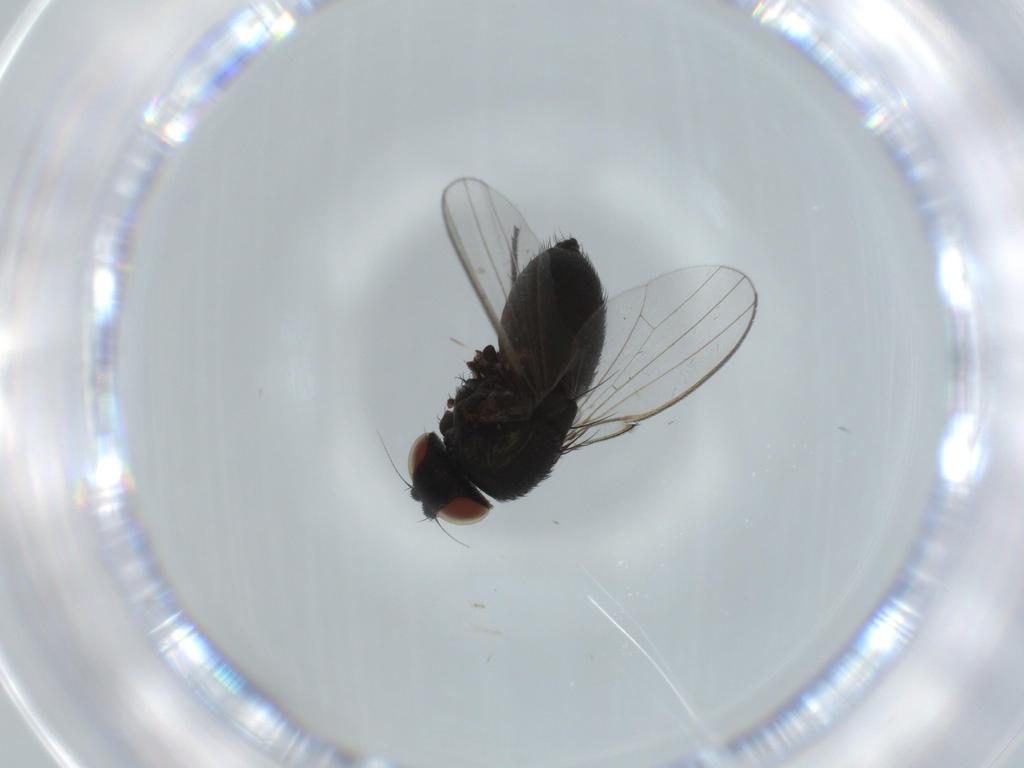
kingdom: Animalia
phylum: Arthropoda
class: Insecta
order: Diptera
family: Milichiidae
